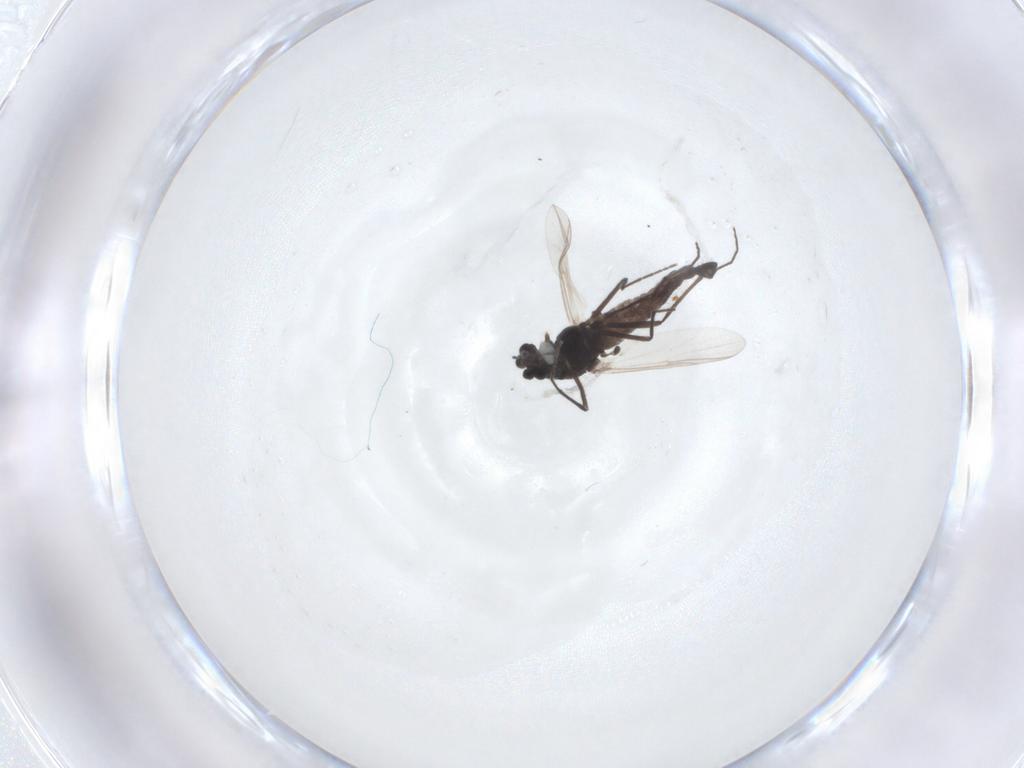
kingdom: Animalia
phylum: Arthropoda
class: Insecta
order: Diptera
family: Chironomidae
